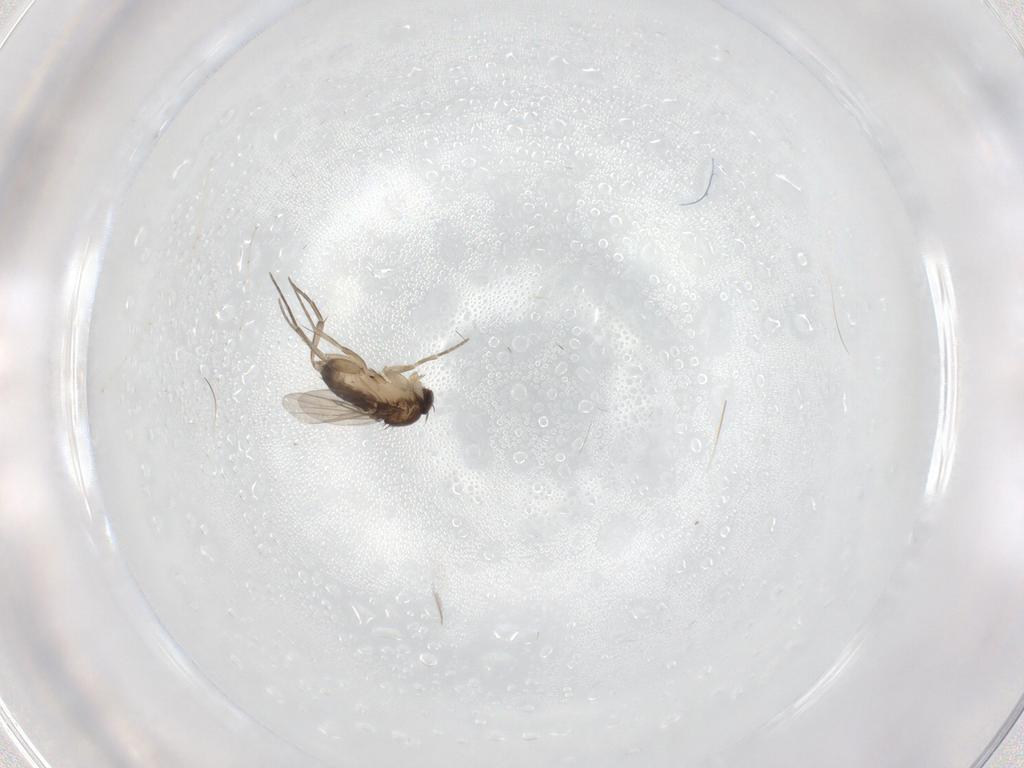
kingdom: Animalia
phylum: Arthropoda
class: Insecta
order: Diptera
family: Phoridae
